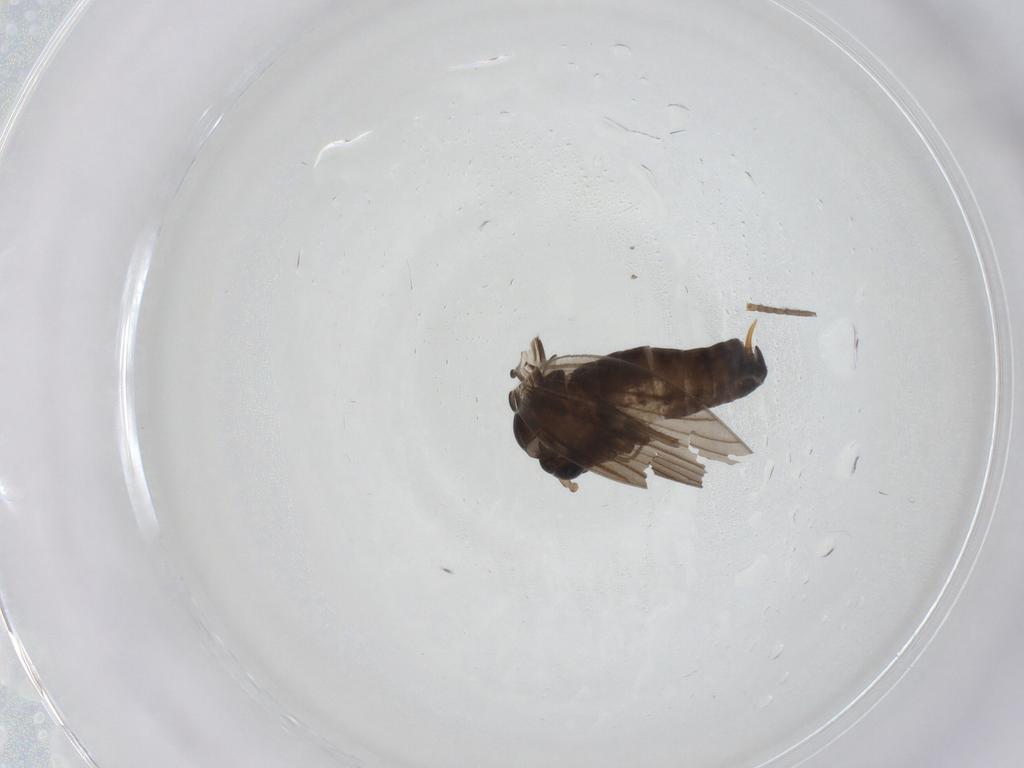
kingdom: Animalia
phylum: Arthropoda
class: Insecta
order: Diptera
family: Psychodidae
